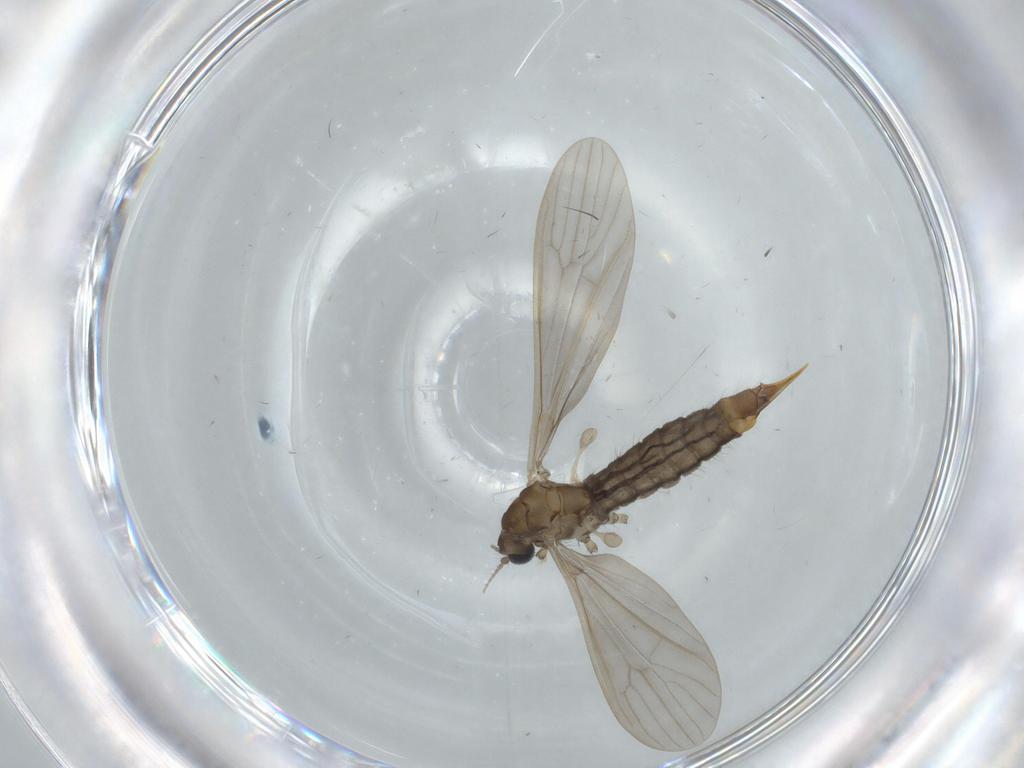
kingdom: Animalia
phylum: Arthropoda
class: Insecta
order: Diptera
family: Limoniidae
